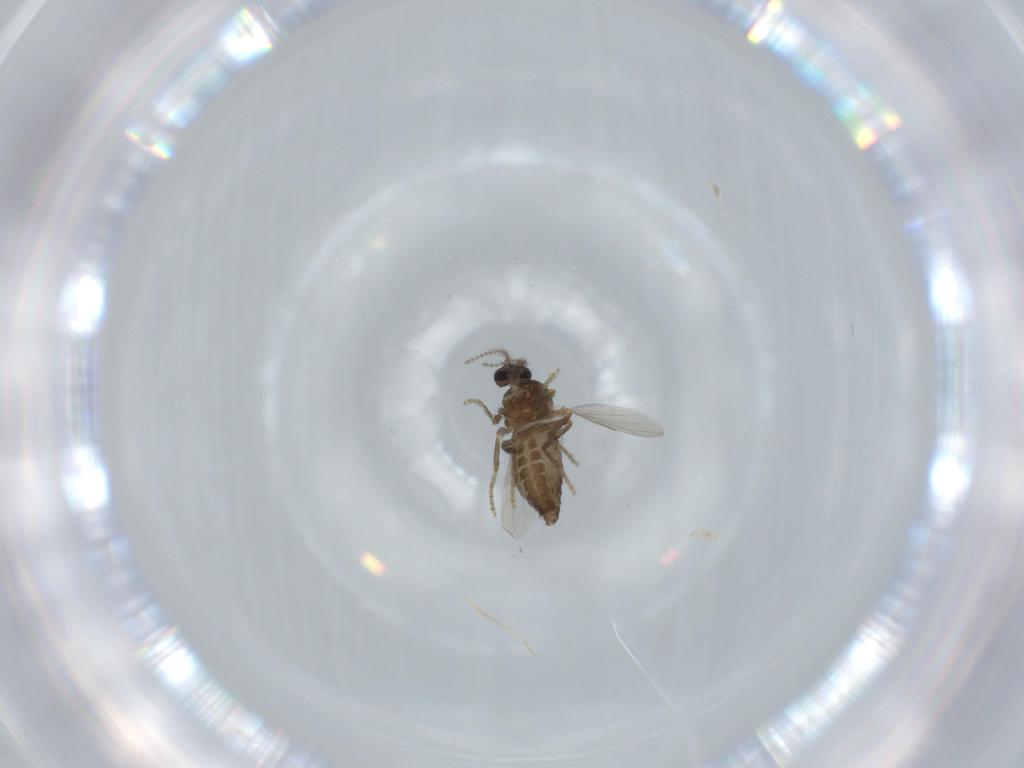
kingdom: Animalia
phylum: Arthropoda
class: Insecta
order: Diptera
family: Ceratopogonidae
